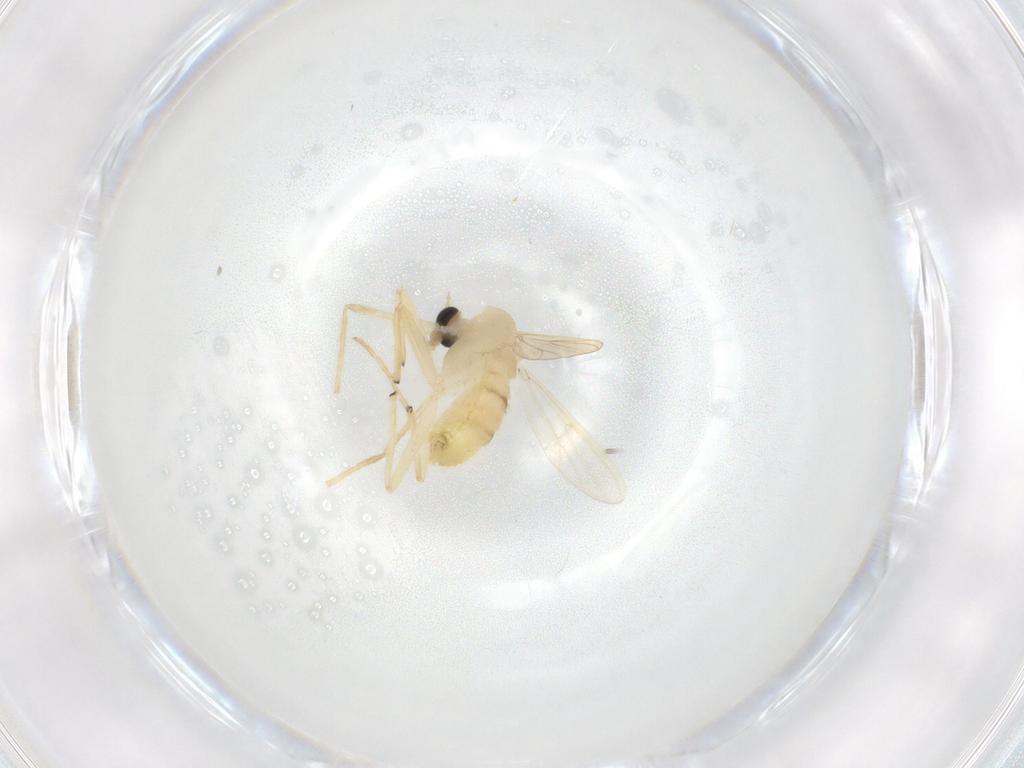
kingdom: Animalia
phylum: Arthropoda
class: Insecta
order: Diptera
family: Chironomidae
